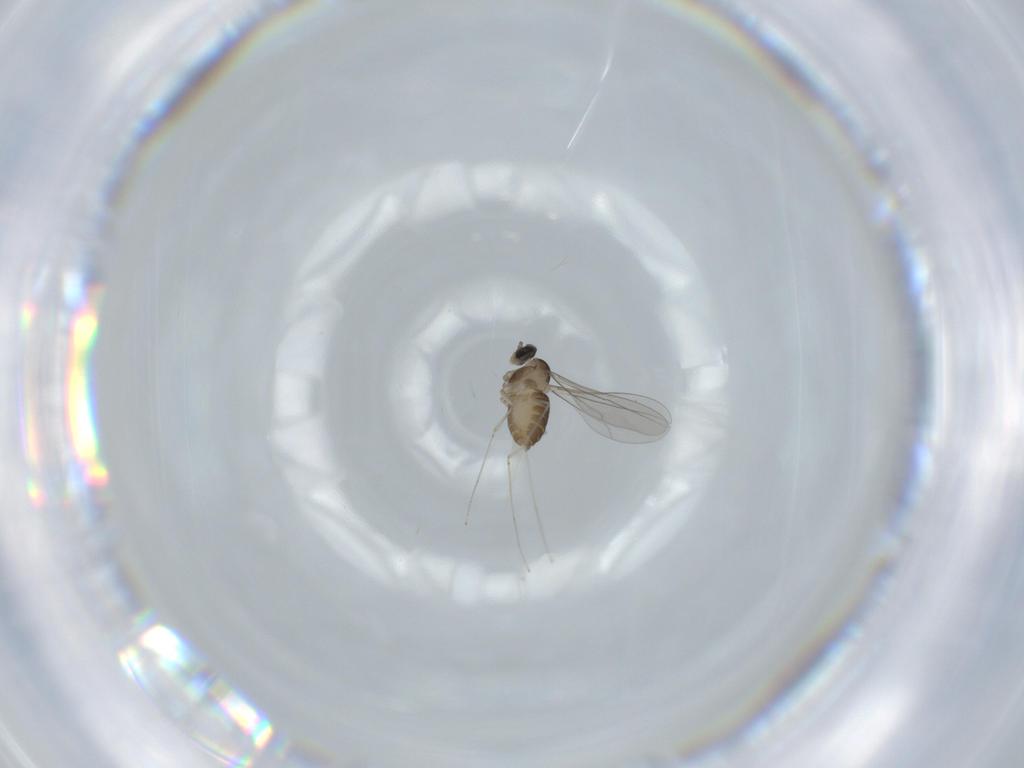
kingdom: Animalia
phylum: Arthropoda
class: Insecta
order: Diptera
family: Cecidomyiidae
